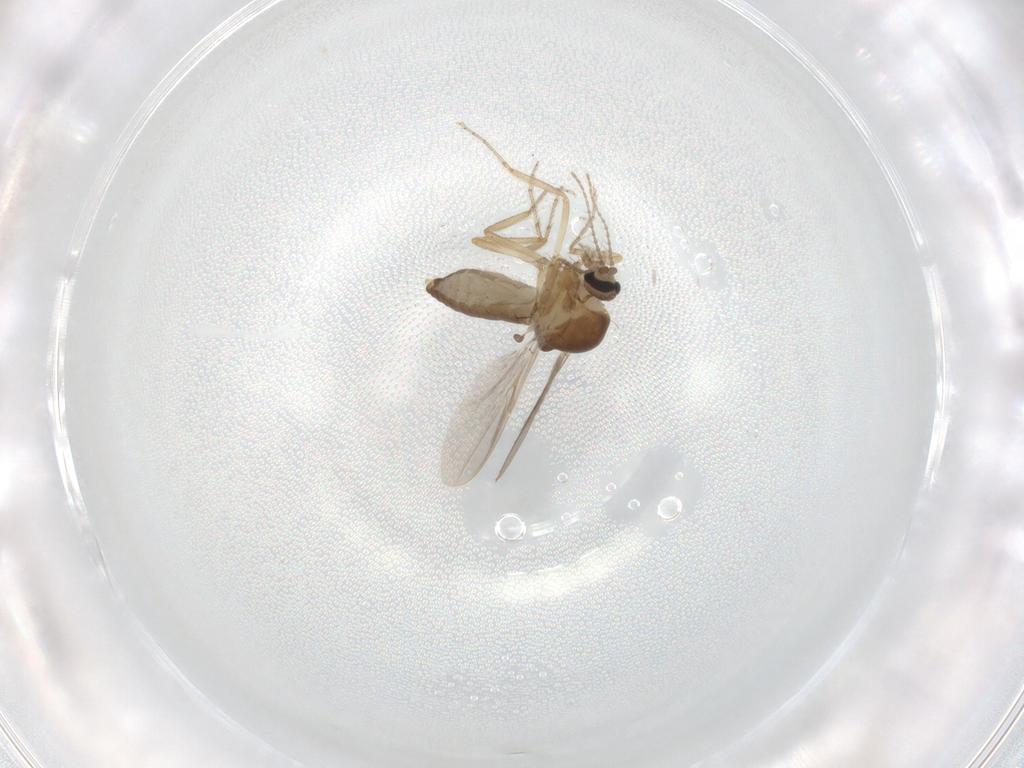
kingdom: Animalia
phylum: Arthropoda
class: Insecta
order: Diptera
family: Ceratopogonidae
